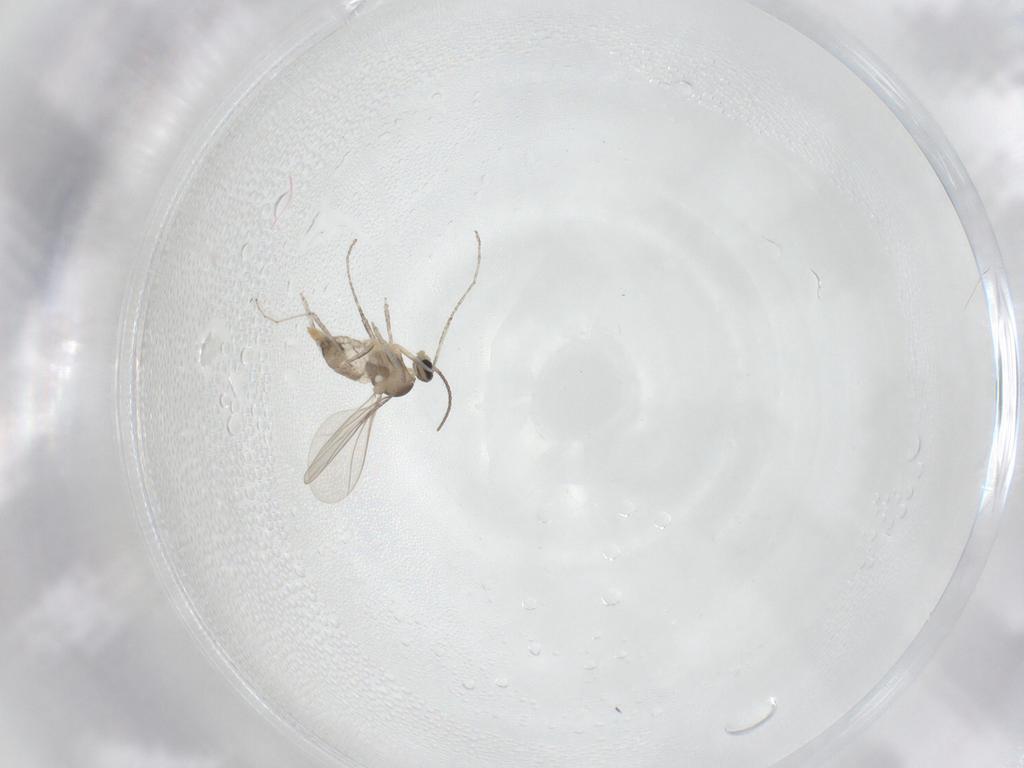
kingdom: Animalia
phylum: Arthropoda
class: Insecta
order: Diptera
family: Cecidomyiidae
